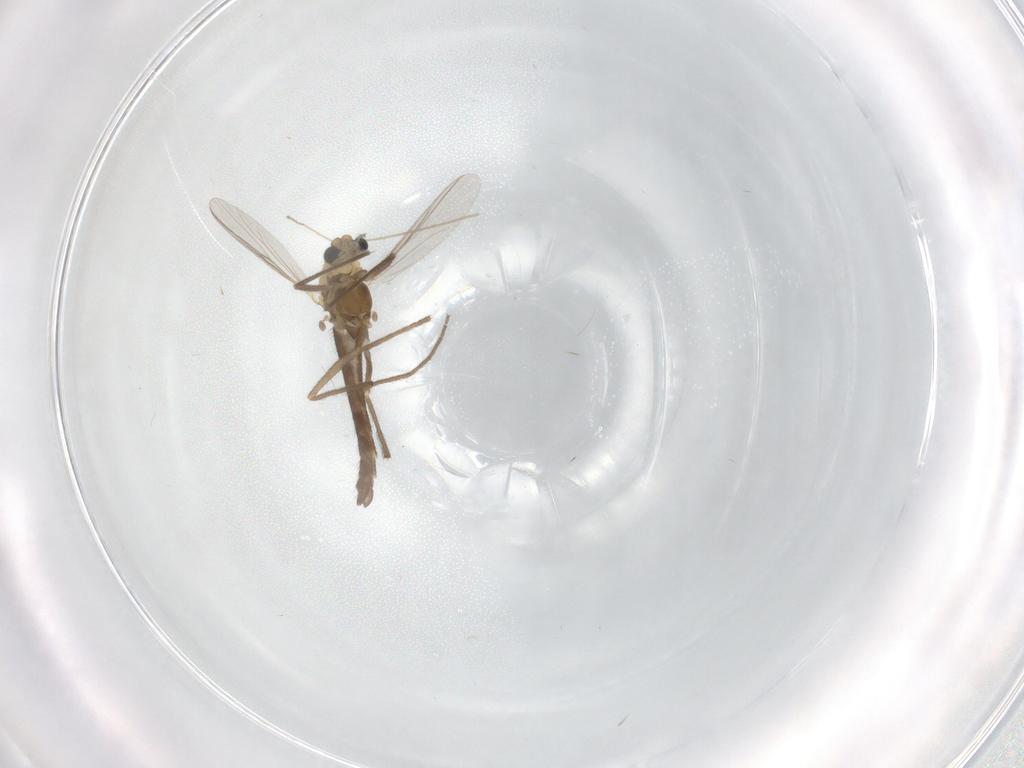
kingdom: Animalia
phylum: Arthropoda
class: Insecta
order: Diptera
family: Chironomidae
